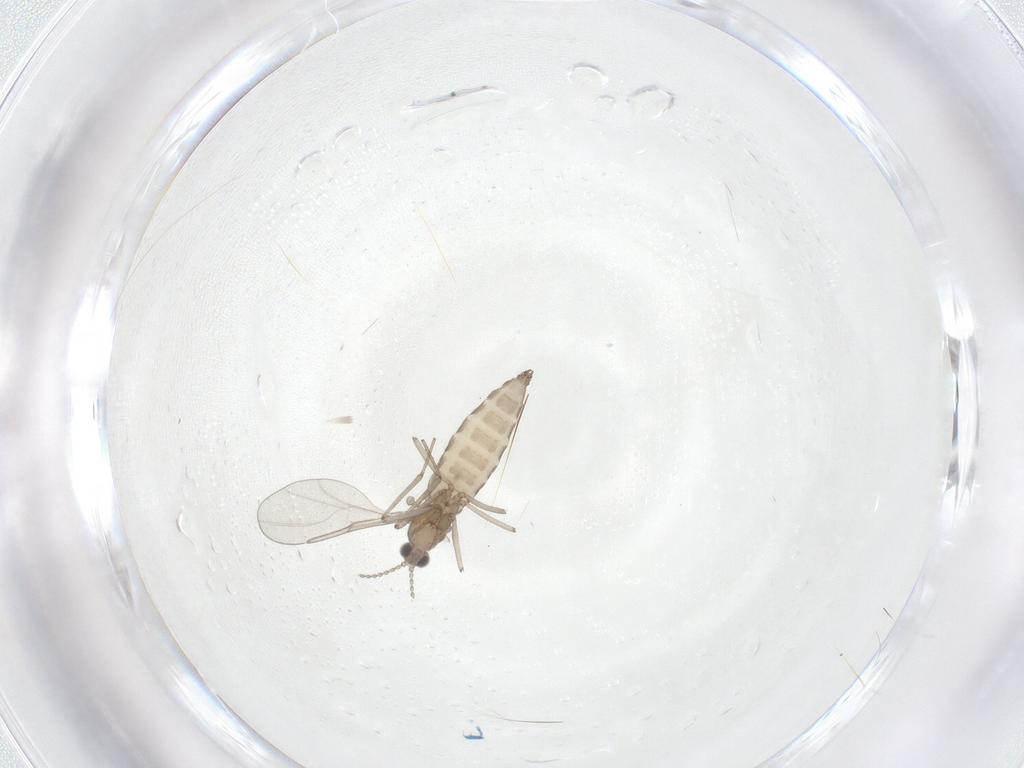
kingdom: Animalia
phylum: Arthropoda
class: Insecta
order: Diptera
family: Cecidomyiidae
